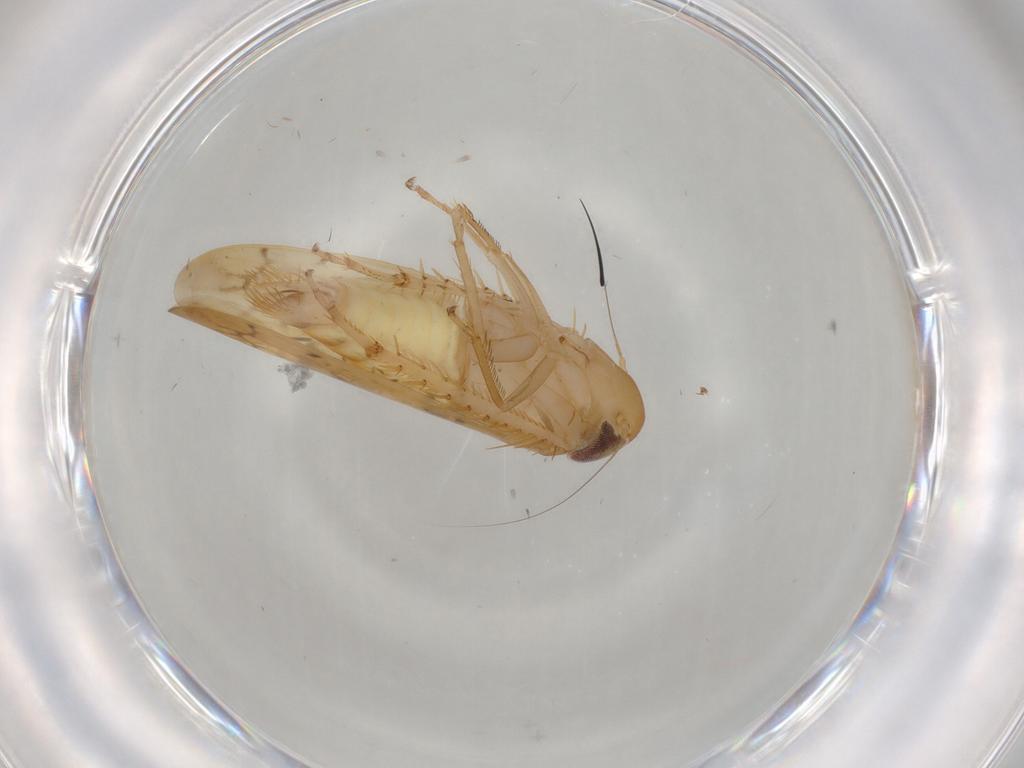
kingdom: Animalia
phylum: Arthropoda
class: Insecta
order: Hemiptera
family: Cicadellidae
